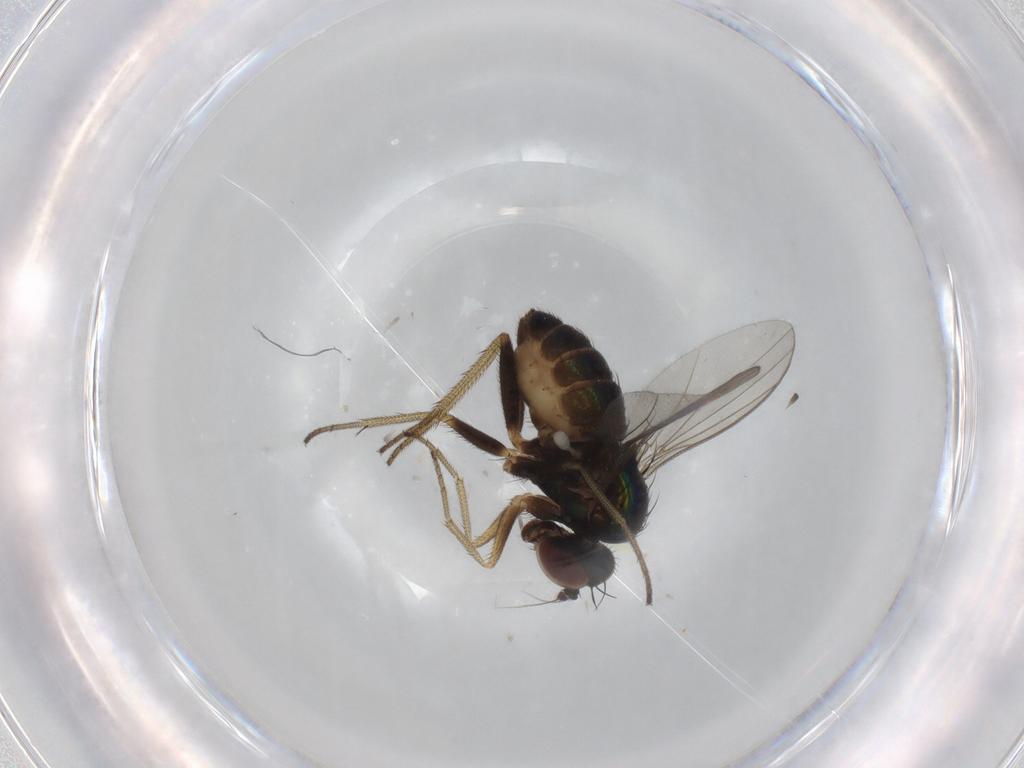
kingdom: Animalia
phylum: Arthropoda
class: Insecta
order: Diptera
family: Dolichopodidae
